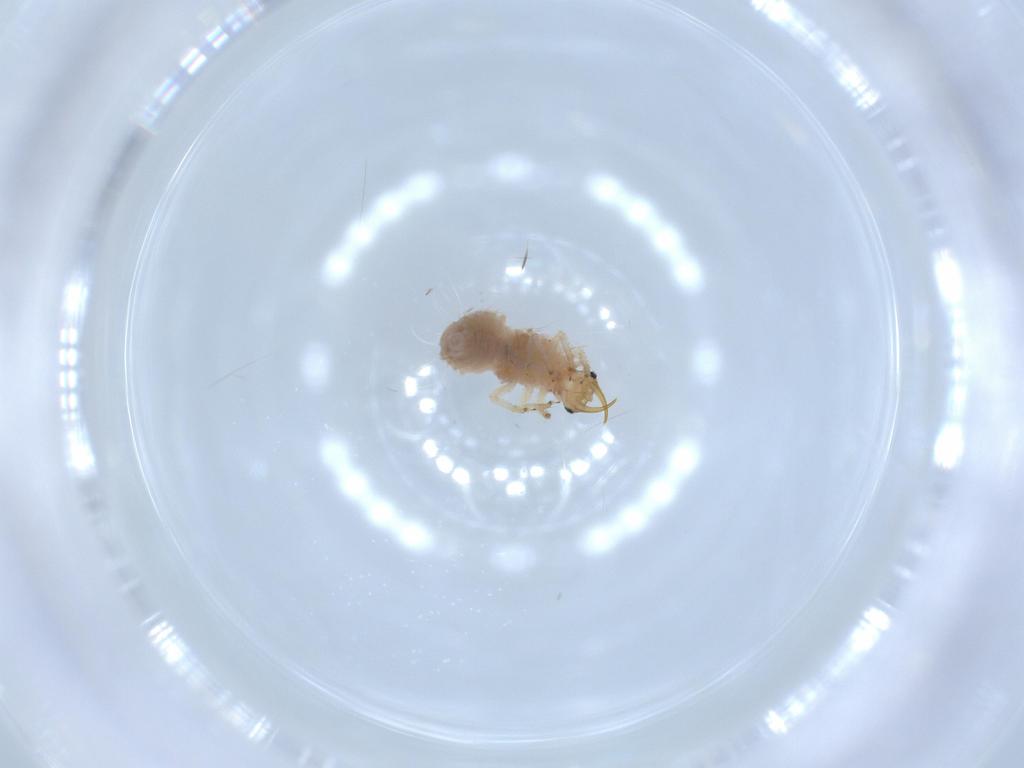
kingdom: Animalia
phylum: Arthropoda
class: Insecta
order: Neuroptera
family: Chrysopidae
